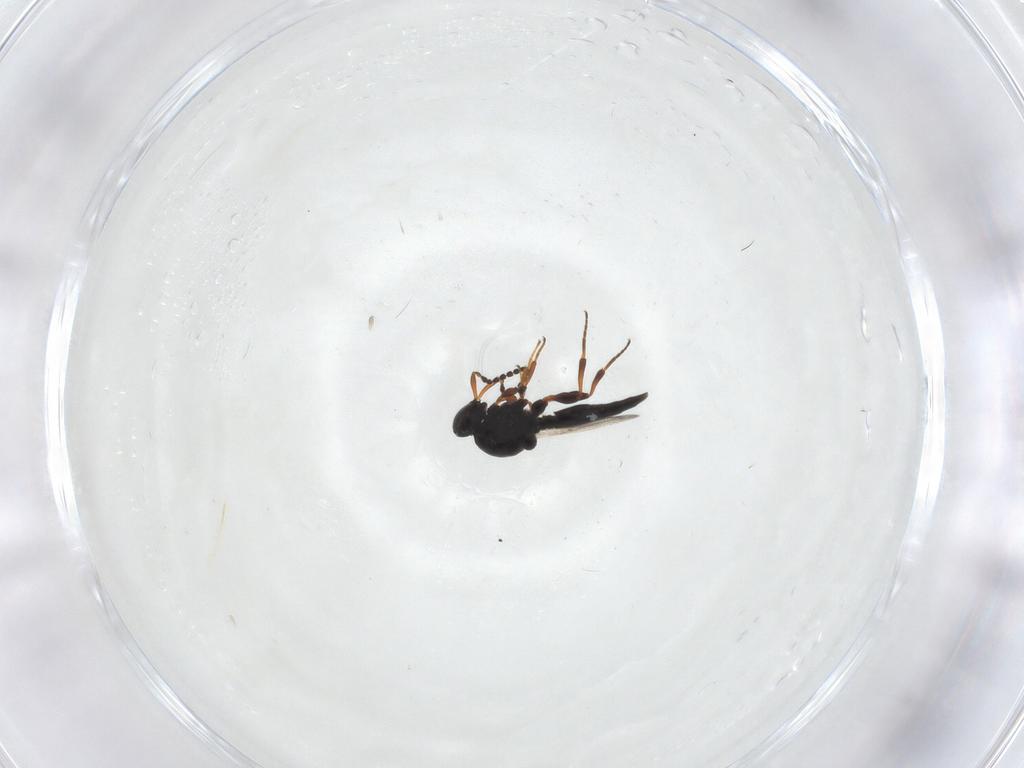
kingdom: Animalia
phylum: Arthropoda
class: Insecta
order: Hymenoptera
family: Platygastridae
